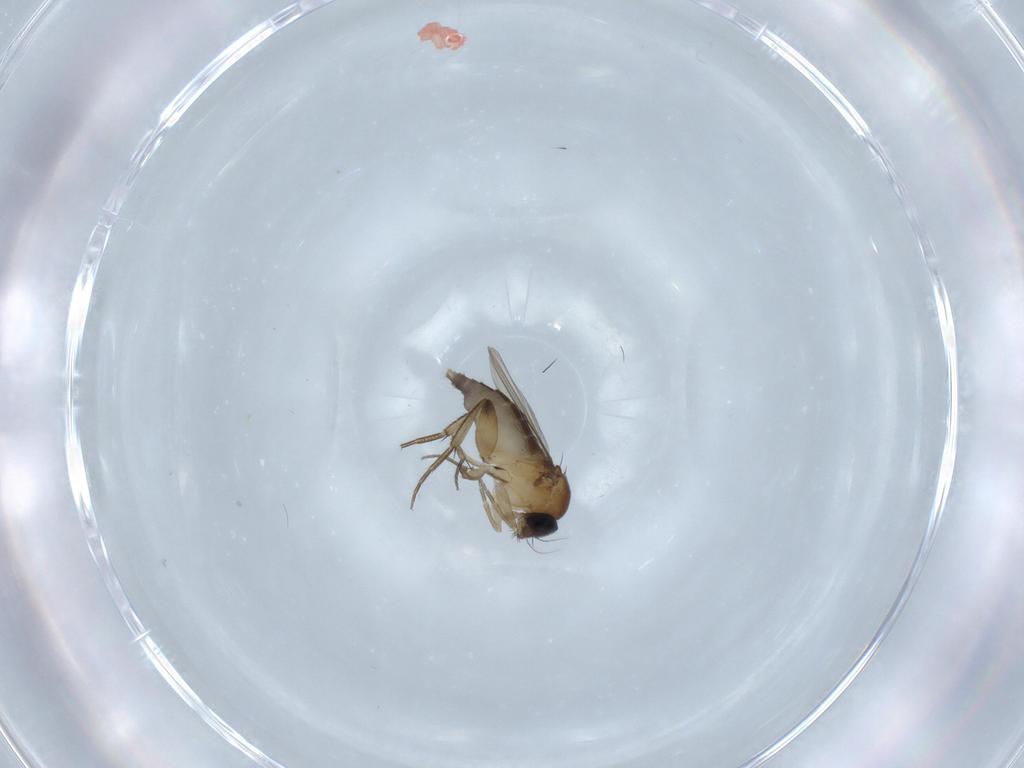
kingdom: Animalia
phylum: Arthropoda
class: Insecta
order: Diptera
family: Phoridae
